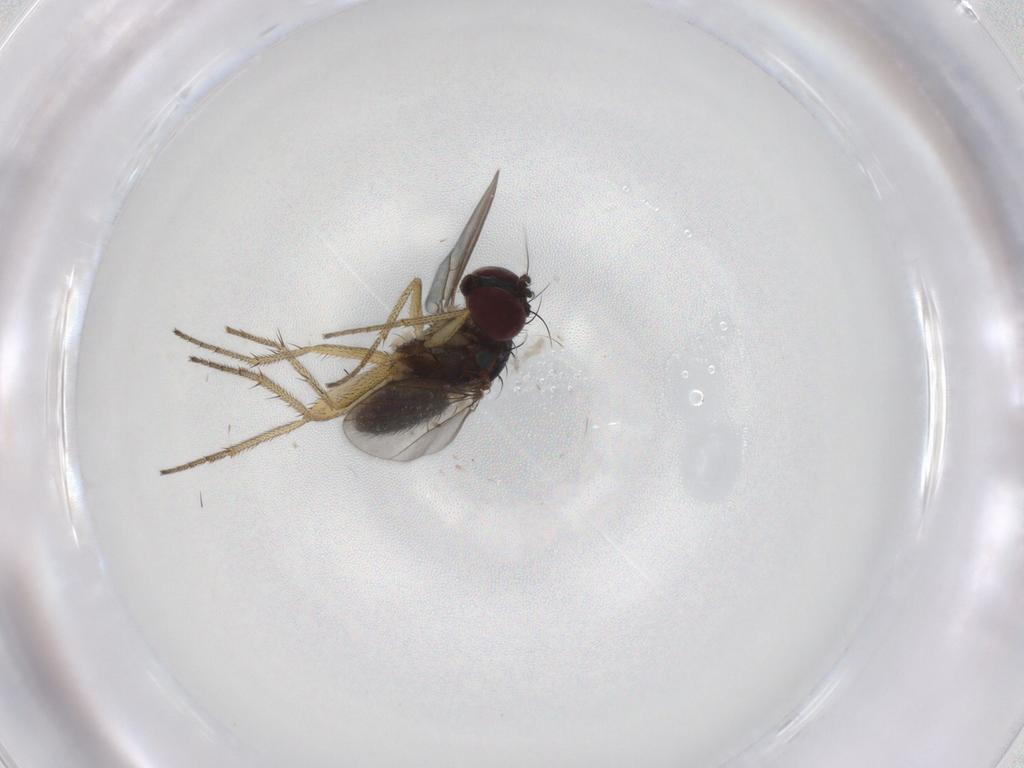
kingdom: Animalia
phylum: Arthropoda
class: Insecta
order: Diptera
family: Dolichopodidae
